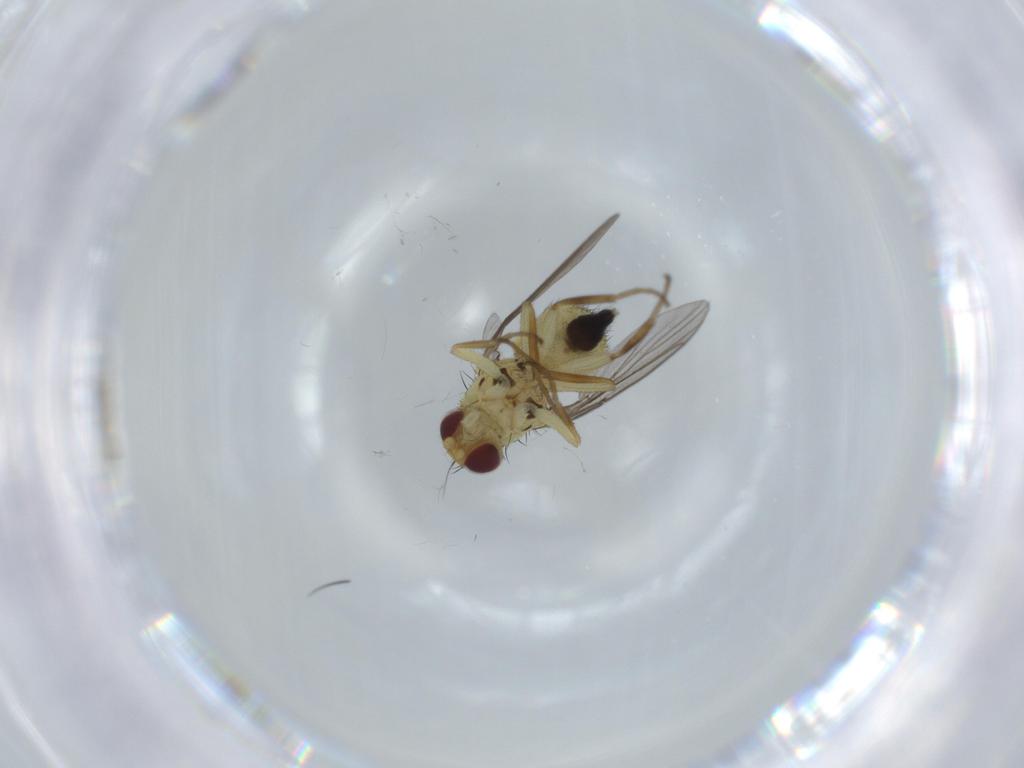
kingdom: Animalia
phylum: Arthropoda
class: Insecta
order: Diptera
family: Agromyzidae
